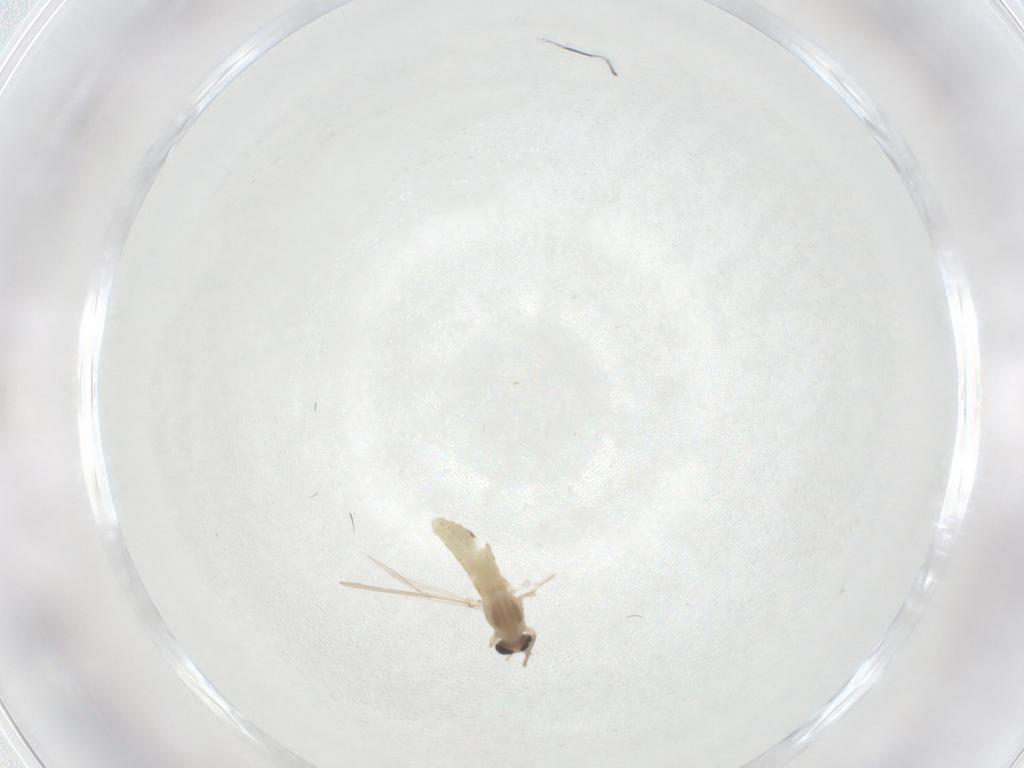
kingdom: Animalia
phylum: Arthropoda
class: Insecta
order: Diptera
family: Chironomidae
